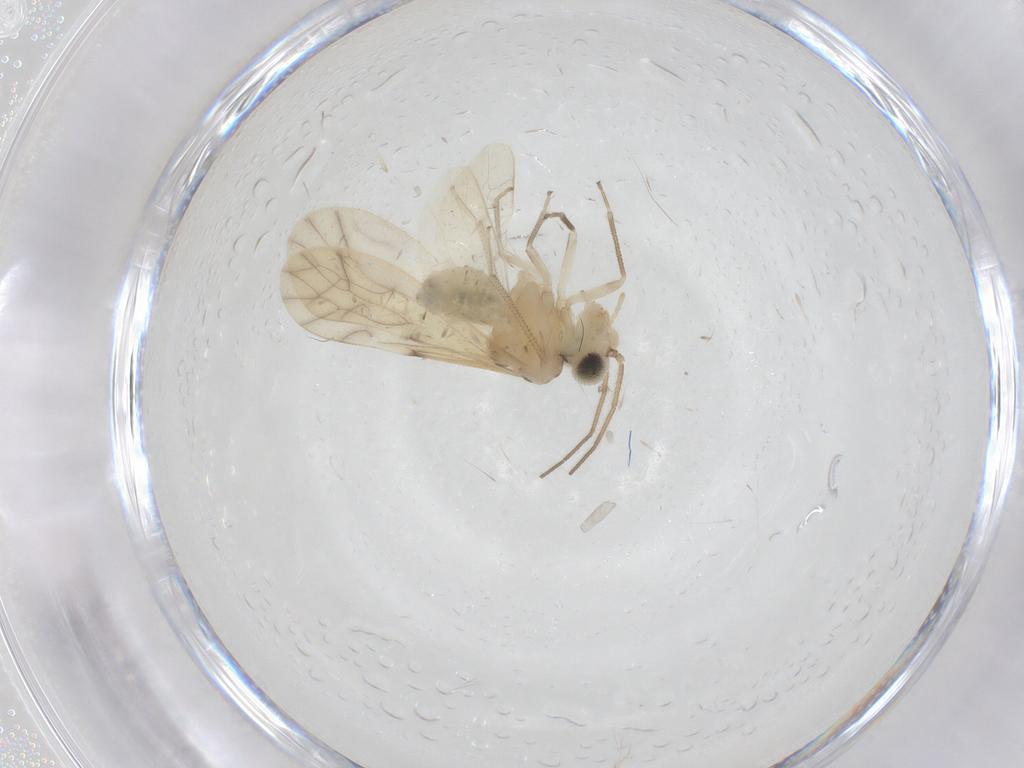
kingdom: Animalia
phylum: Arthropoda
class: Insecta
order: Psocodea
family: Caeciliusidae
